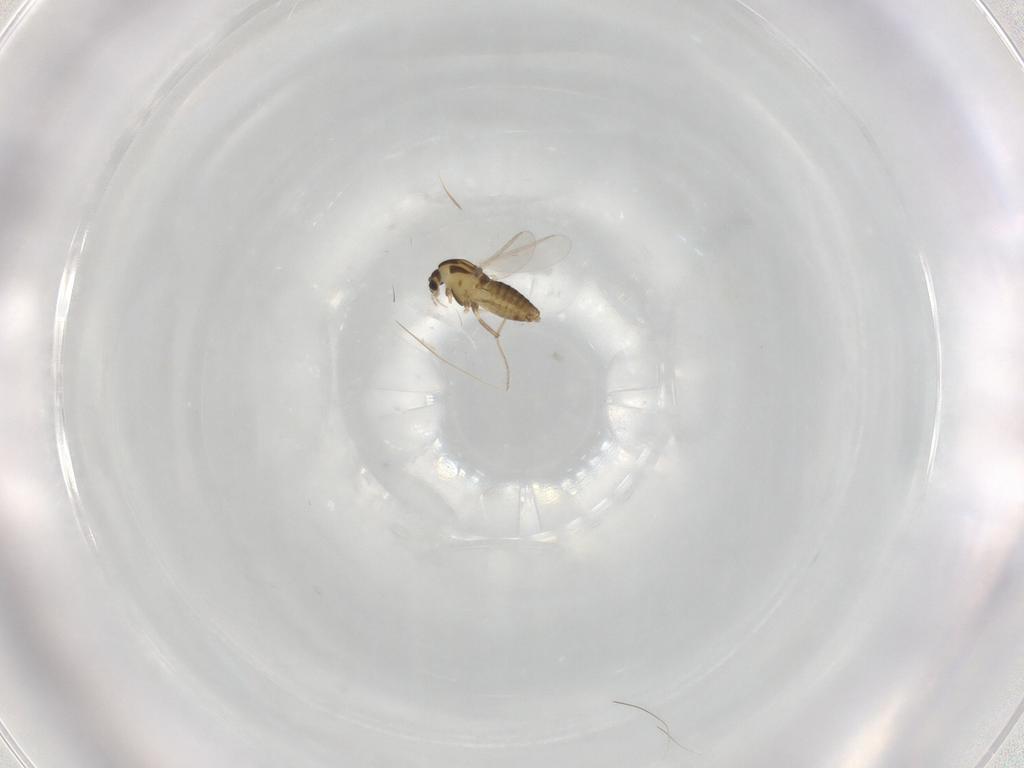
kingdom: Animalia
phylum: Arthropoda
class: Insecta
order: Diptera
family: Chironomidae
